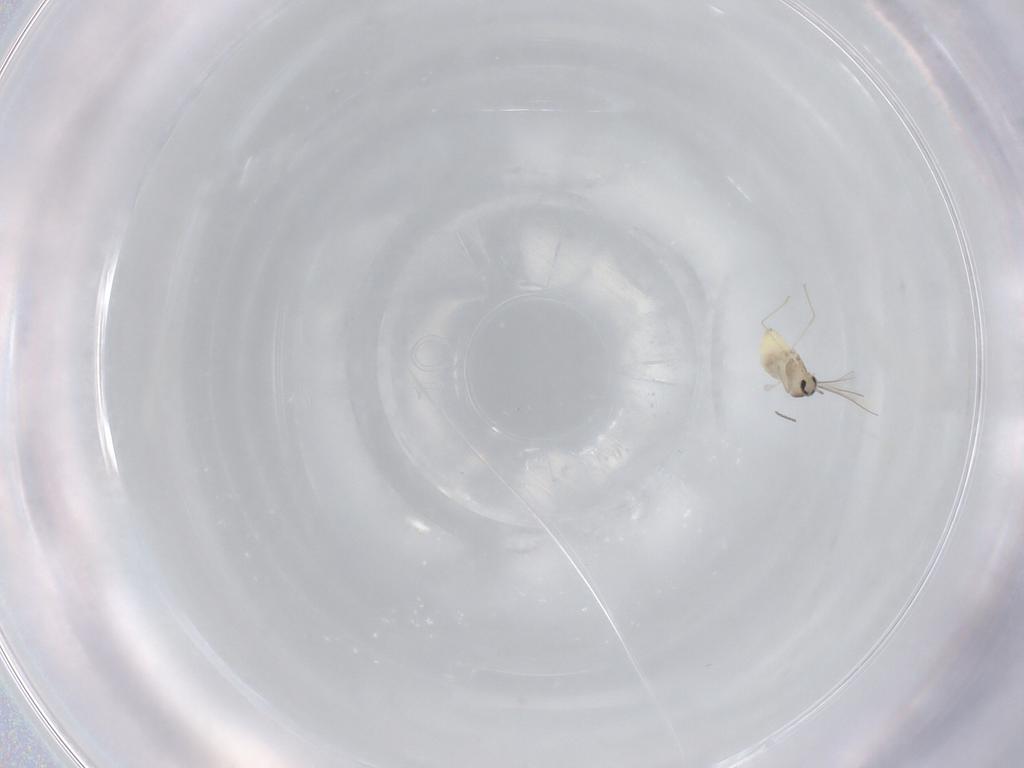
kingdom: Animalia
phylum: Arthropoda
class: Insecta
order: Diptera
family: Cecidomyiidae
